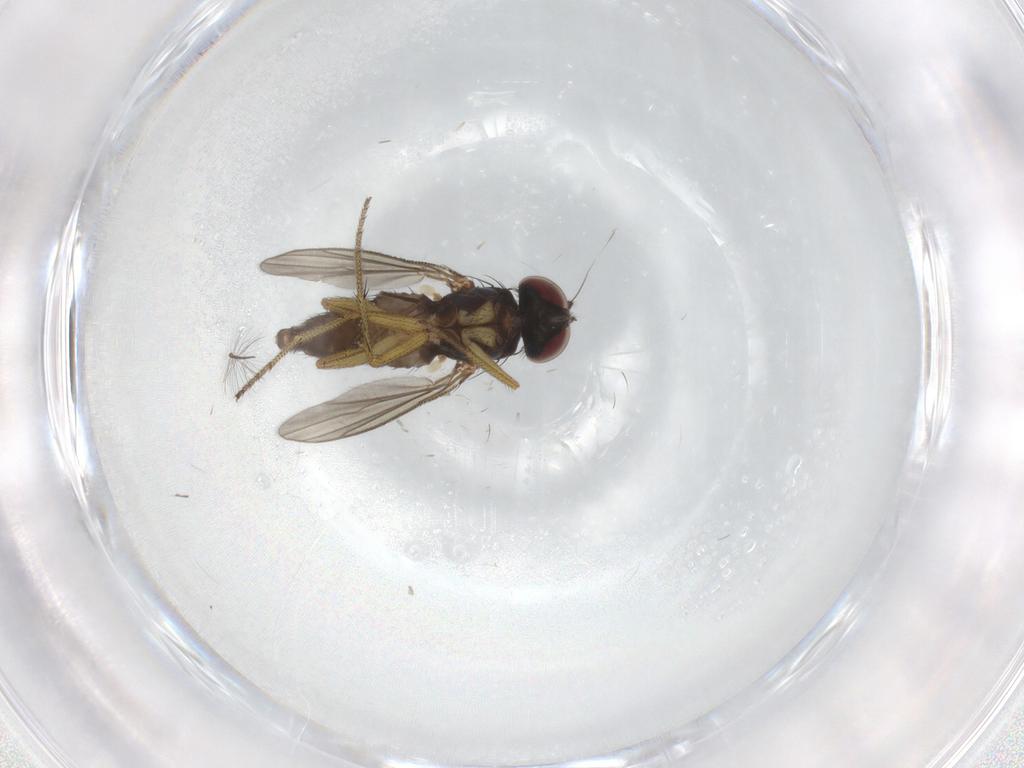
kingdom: Animalia
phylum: Arthropoda
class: Insecta
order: Diptera
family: Dolichopodidae
